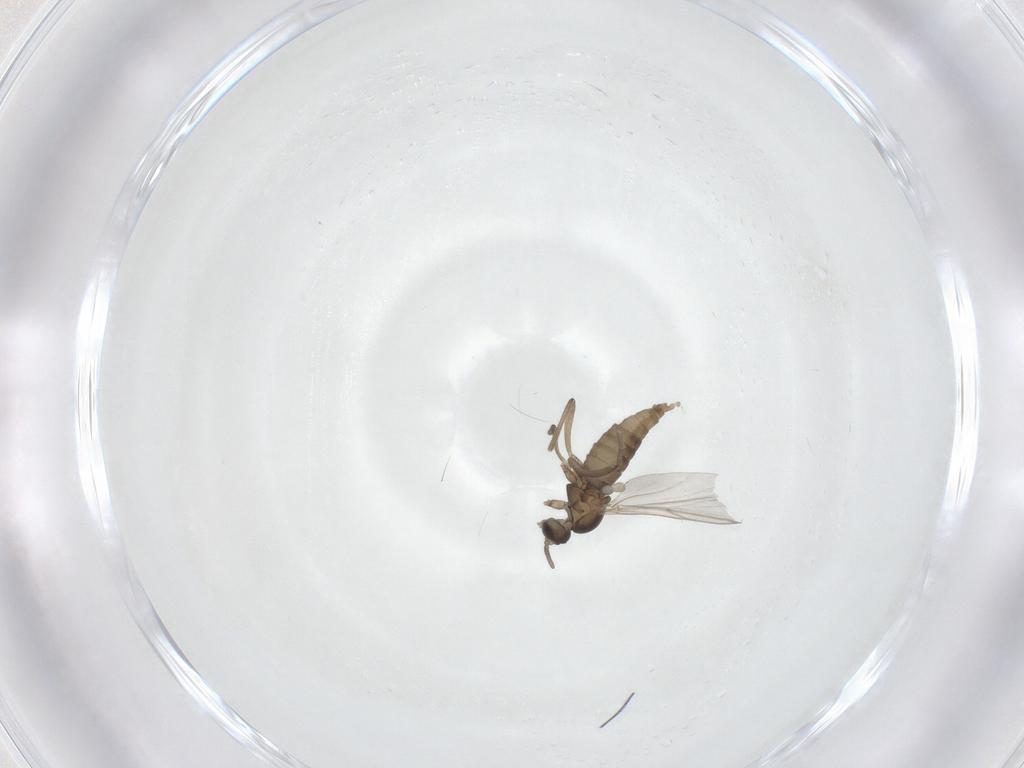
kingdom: Animalia
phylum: Arthropoda
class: Insecta
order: Diptera
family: Cecidomyiidae
